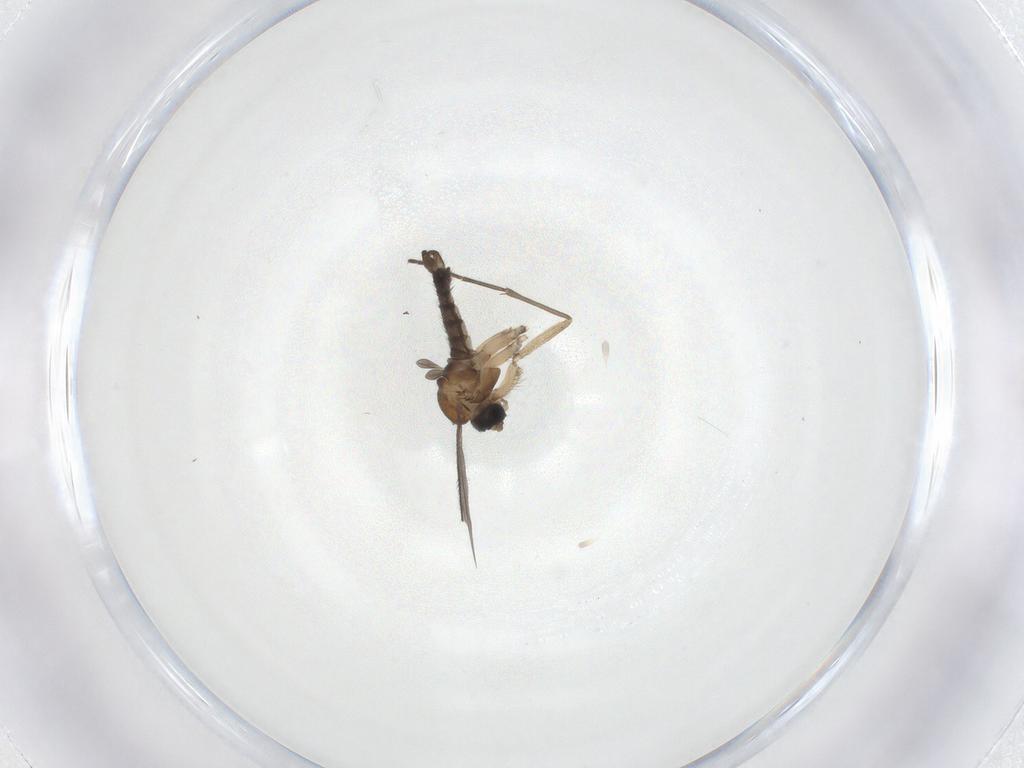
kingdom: Animalia
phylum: Arthropoda
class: Insecta
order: Diptera
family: Sciaridae
